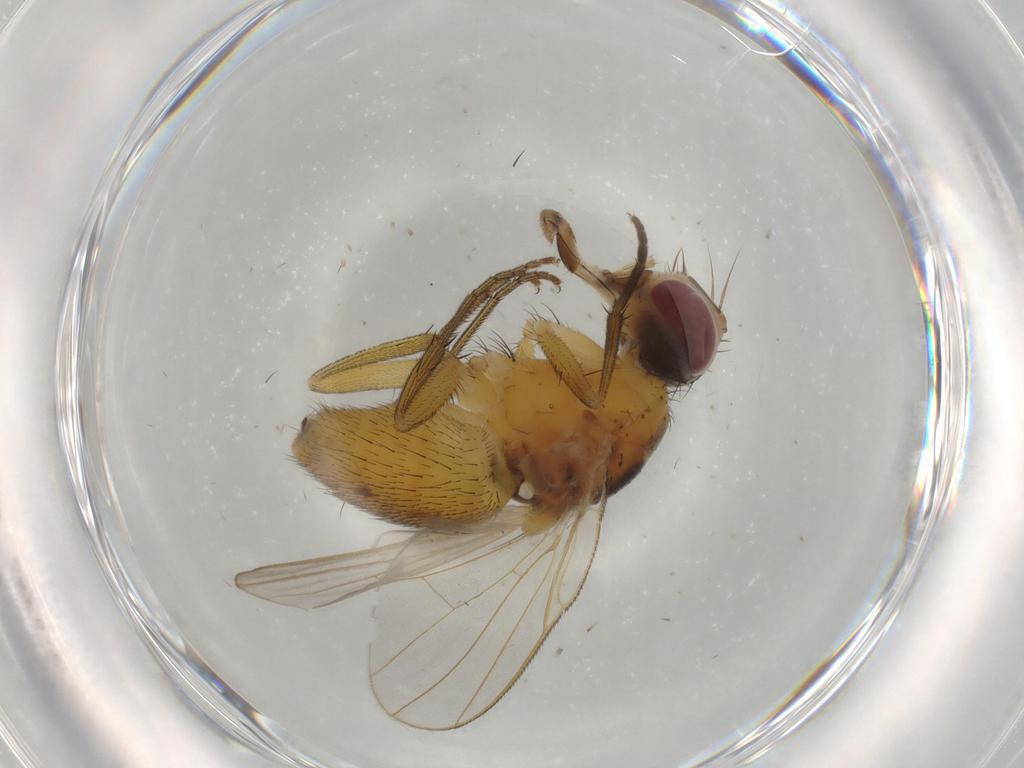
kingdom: Animalia
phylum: Arthropoda
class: Insecta
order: Diptera
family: Muscidae
